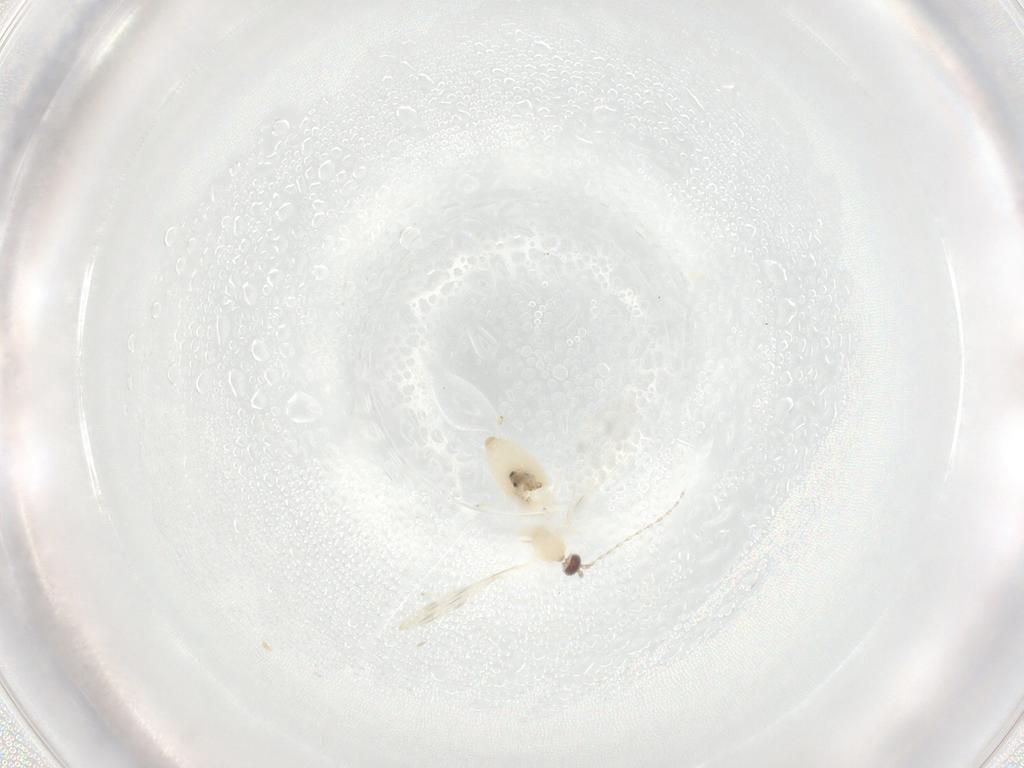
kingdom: Animalia
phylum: Arthropoda
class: Insecta
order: Diptera
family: Cecidomyiidae
